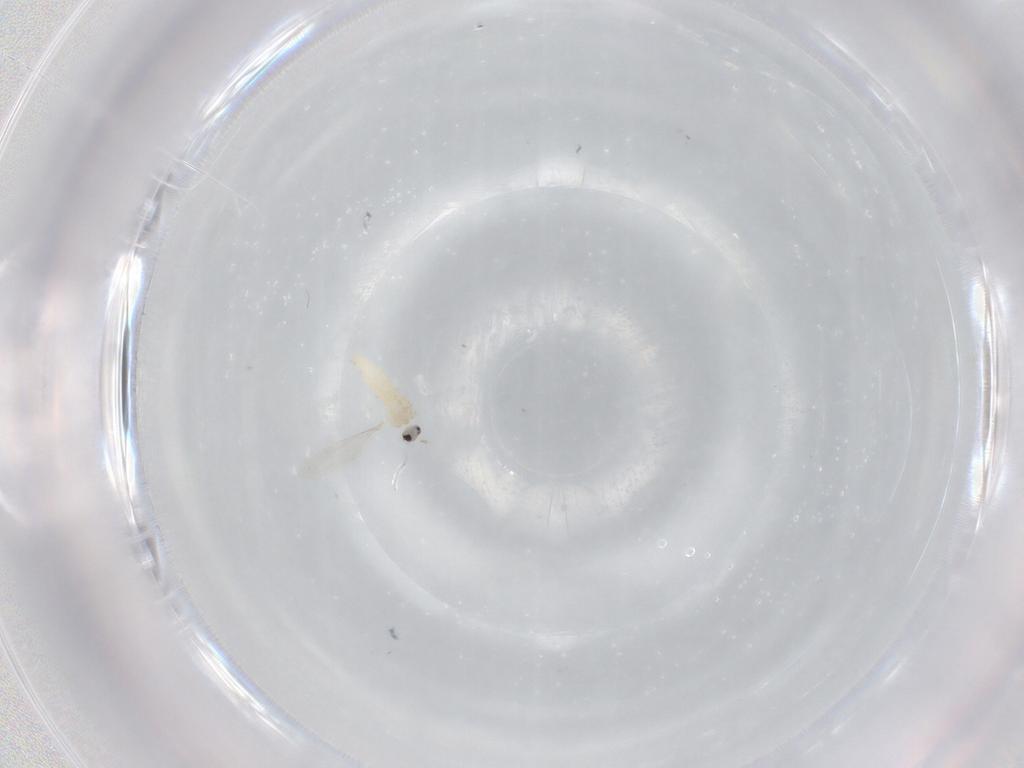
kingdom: Animalia
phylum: Arthropoda
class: Insecta
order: Diptera
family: Cecidomyiidae
